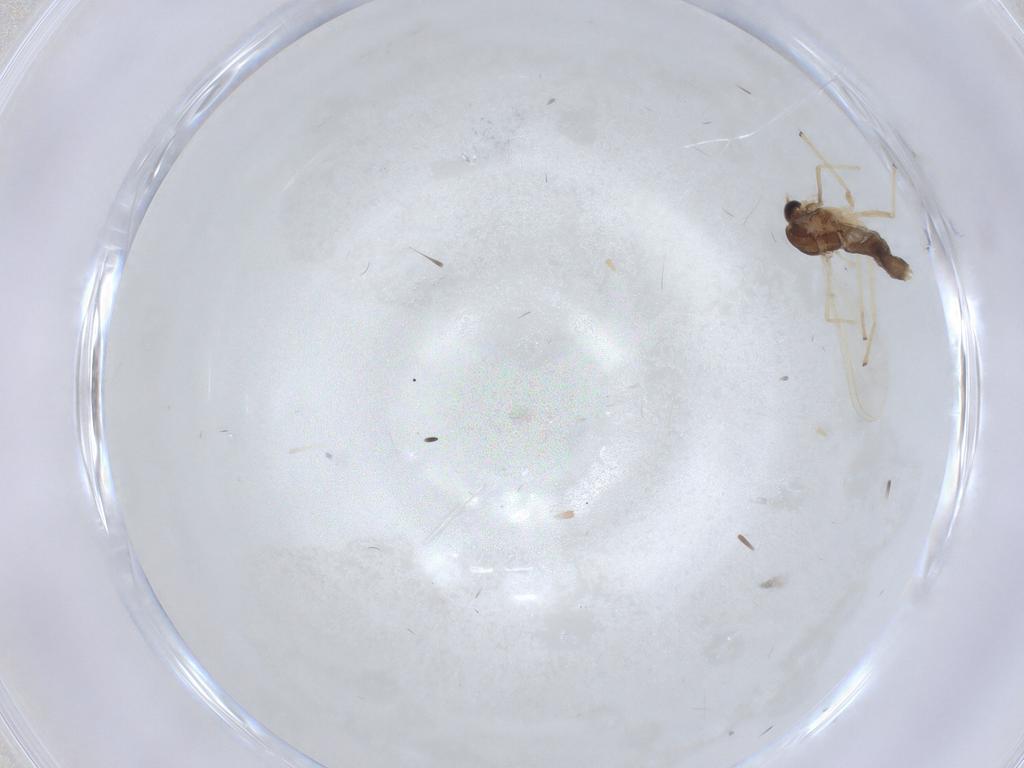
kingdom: Animalia
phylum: Arthropoda
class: Insecta
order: Diptera
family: Chironomidae
